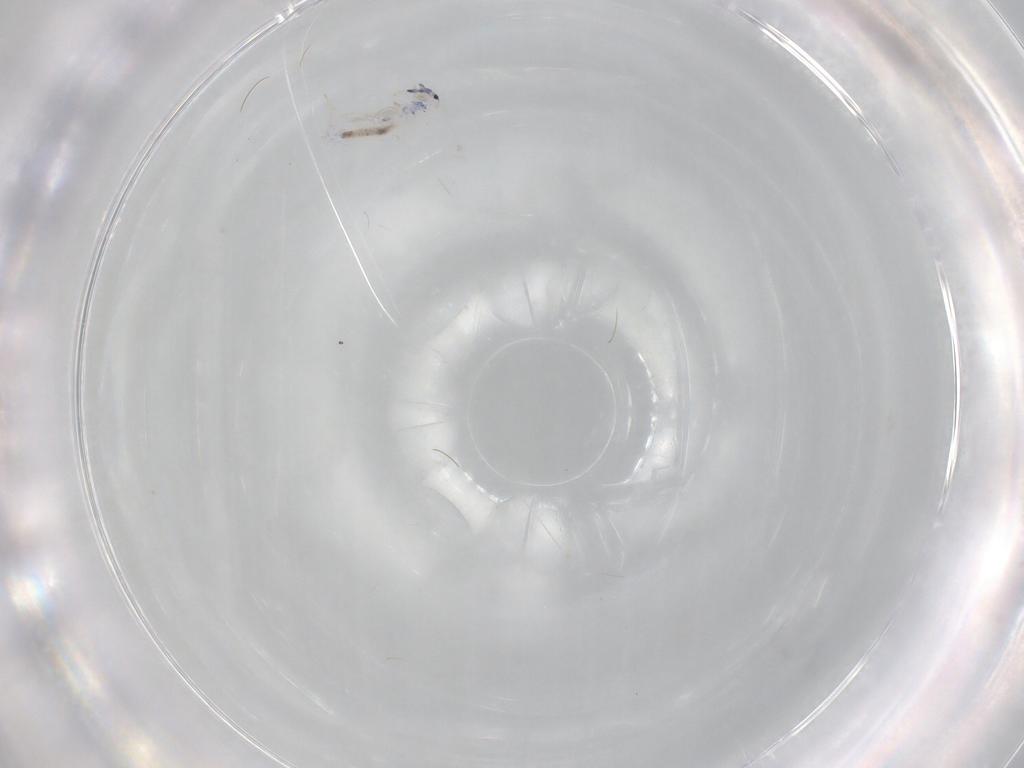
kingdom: Animalia
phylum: Arthropoda
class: Collembola
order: Entomobryomorpha
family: Entomobryidae
